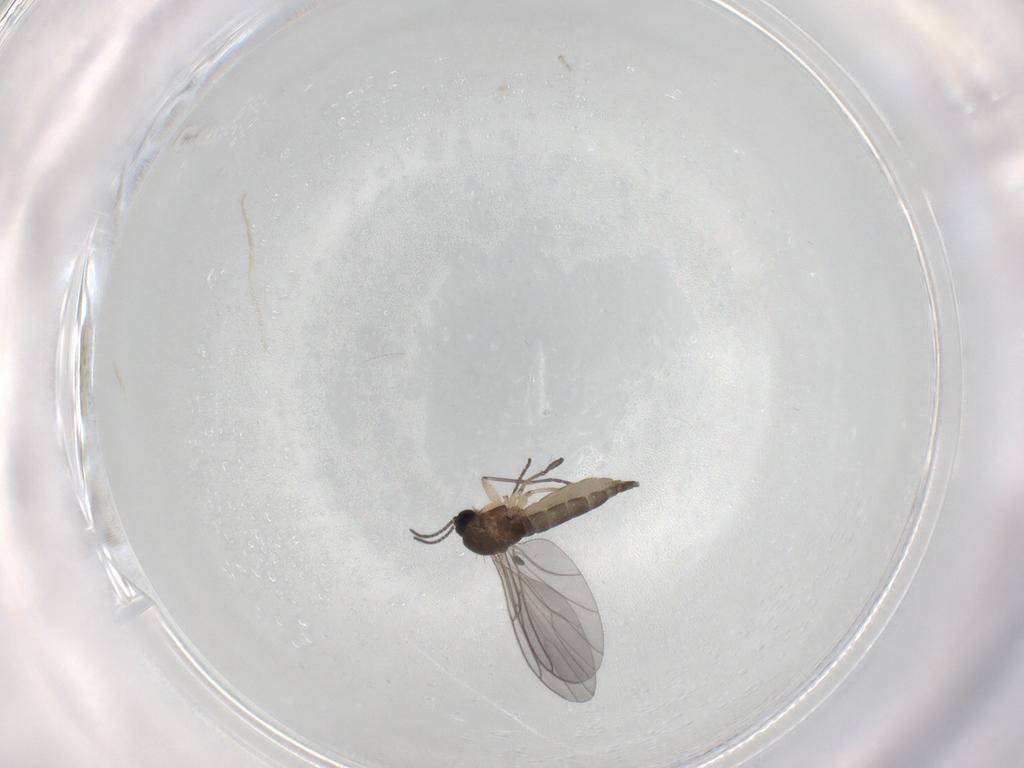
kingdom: Animalia
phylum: Arthropoda
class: Insecta
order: Diptera
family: Sciaridae
